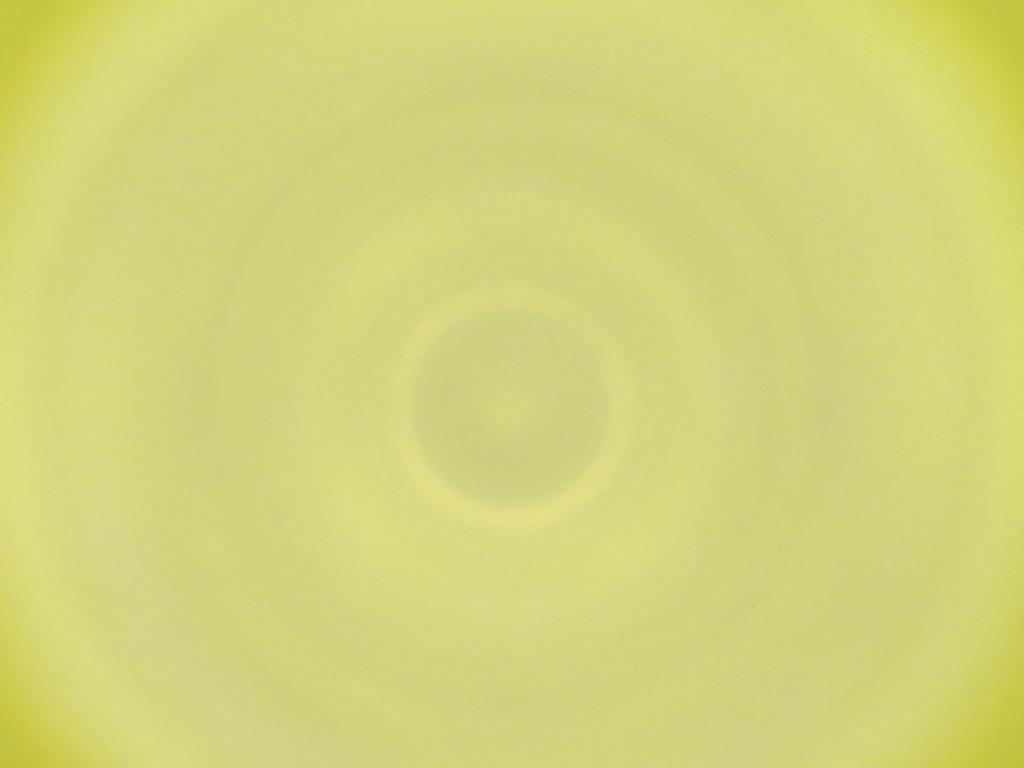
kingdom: Animalia
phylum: Arthropoda
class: Insecta
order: Diptera
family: Cecidomyiidae
